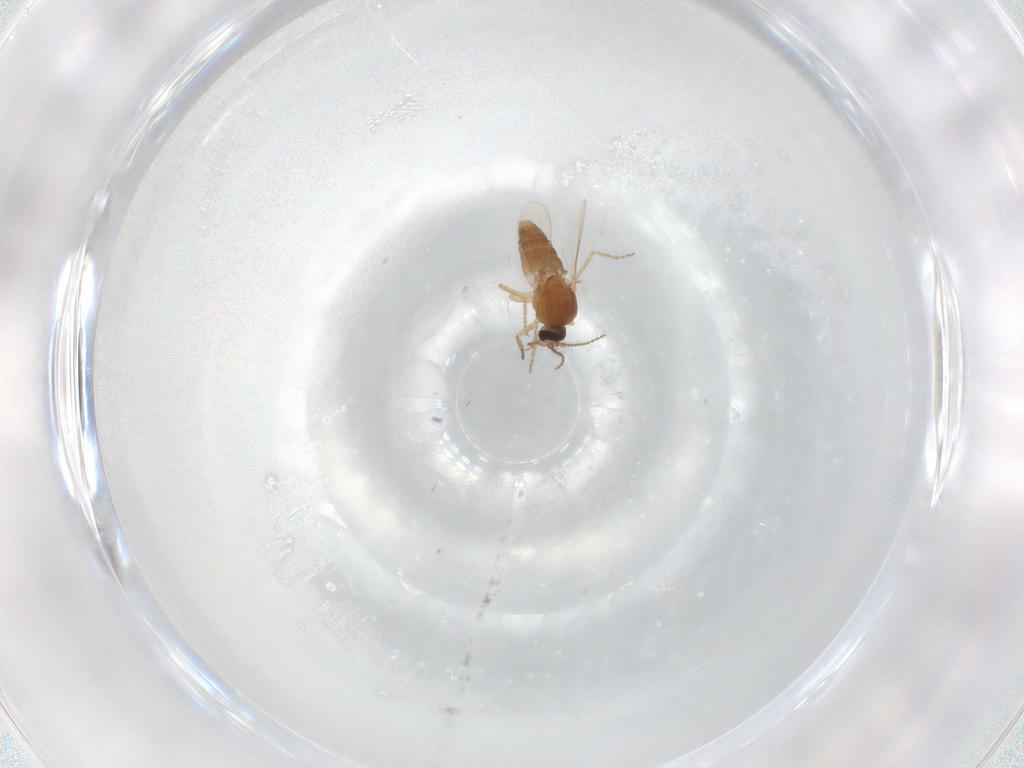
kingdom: Animalia
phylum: Arthropoda
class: Insecta
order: Diptera
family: Ceratopogonidae
